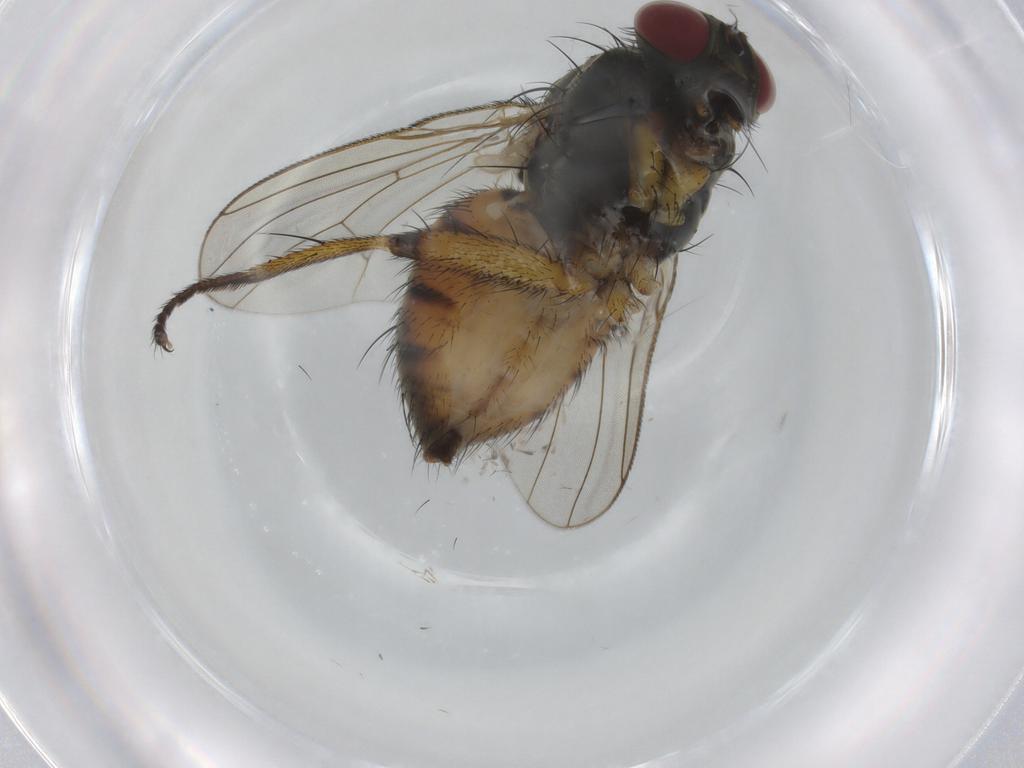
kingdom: Animalia
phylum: Arthropoda
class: Insecta
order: Diptera
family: Muscidae
